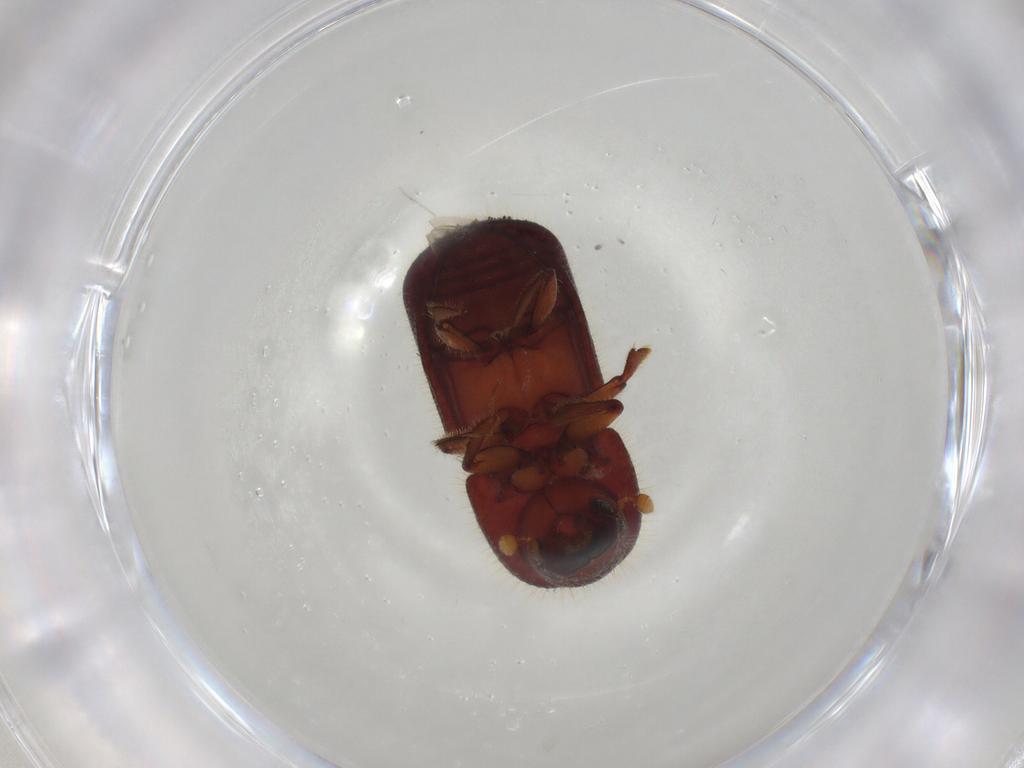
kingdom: Animalia
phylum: Arthropoda
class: Insecta
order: Coleoptera
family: Curculionidae
